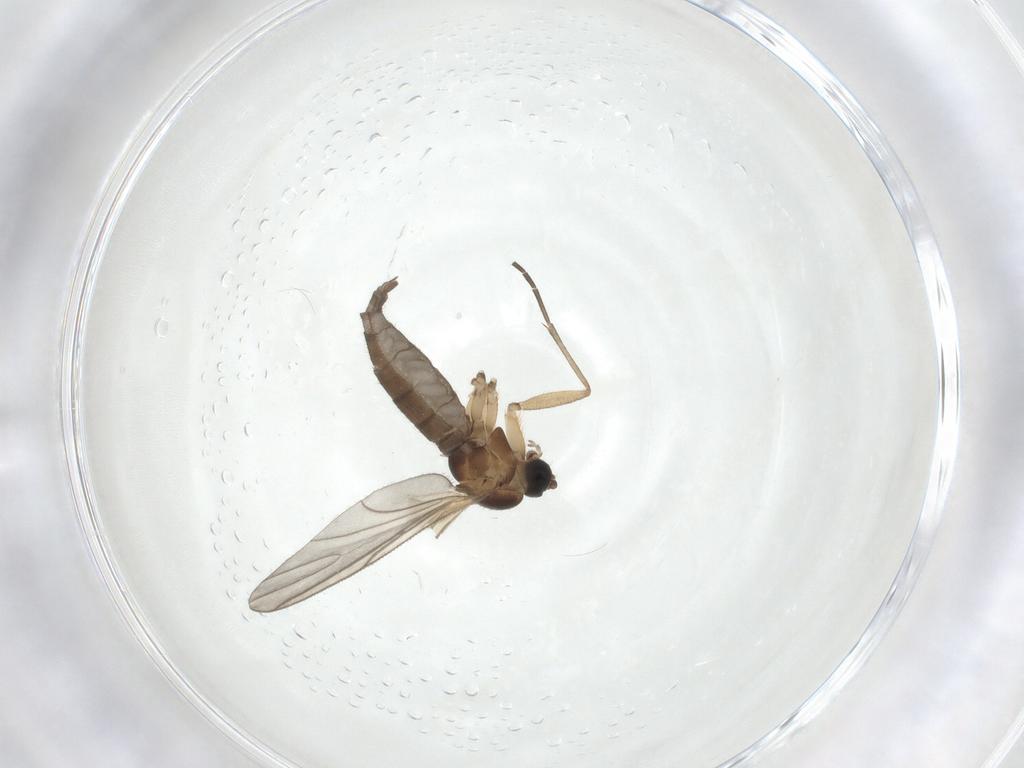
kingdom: Animalia
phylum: Arthropoda
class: Insecta
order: Diptera
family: Sciaridae
